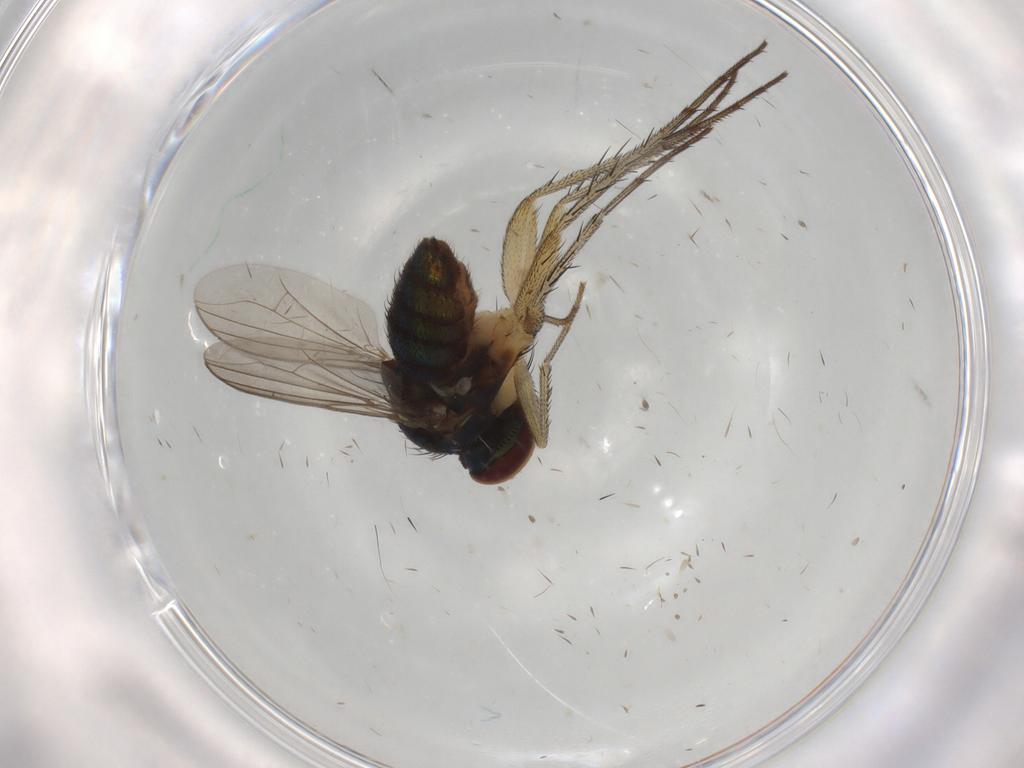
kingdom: Animalia
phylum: Arthropoda
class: Insecta
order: Diptera
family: Dolichopodidae
